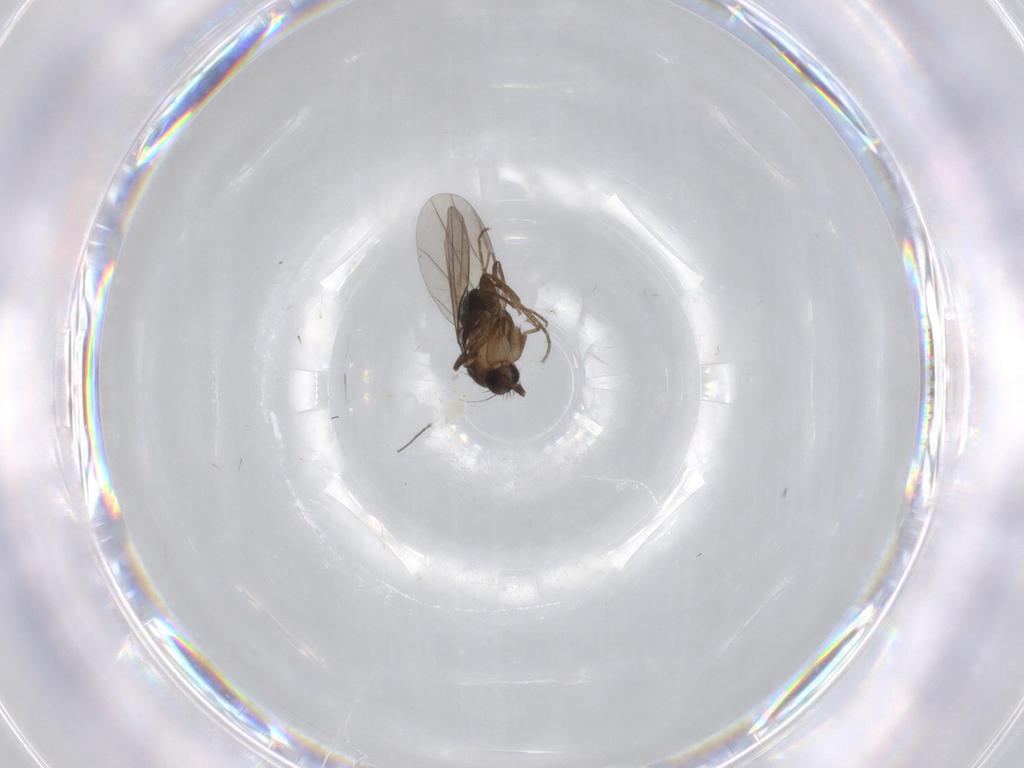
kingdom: Animalia
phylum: Arthropoda
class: Insecta
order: Diptera
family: Limoniidae
